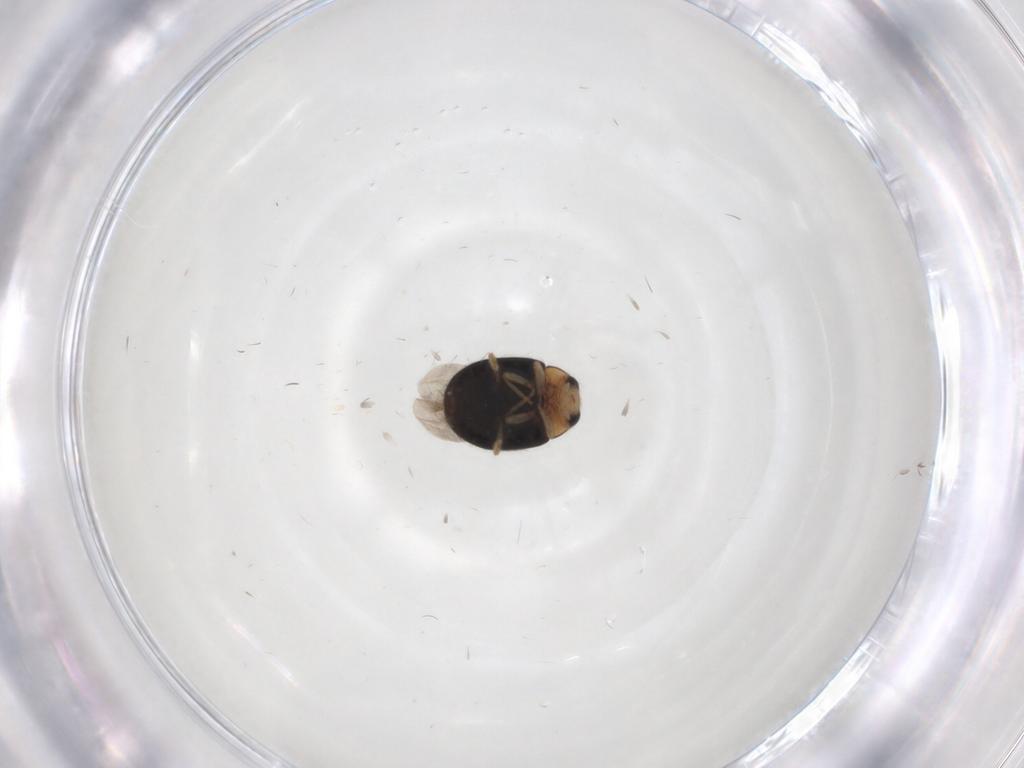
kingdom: Animalia
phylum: Arthropoda
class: Insecta
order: Coleoptera
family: Coccinellidae
